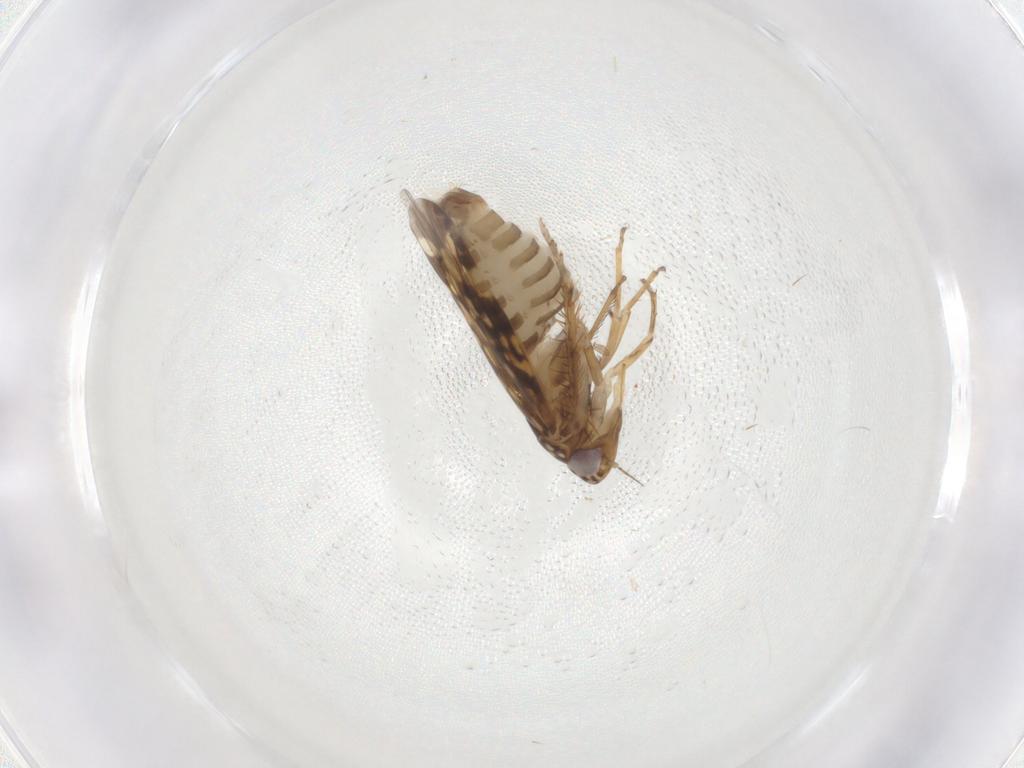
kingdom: Animalia
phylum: Arthropoda
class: Insecta
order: Hemiptera
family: Cicadellidae
